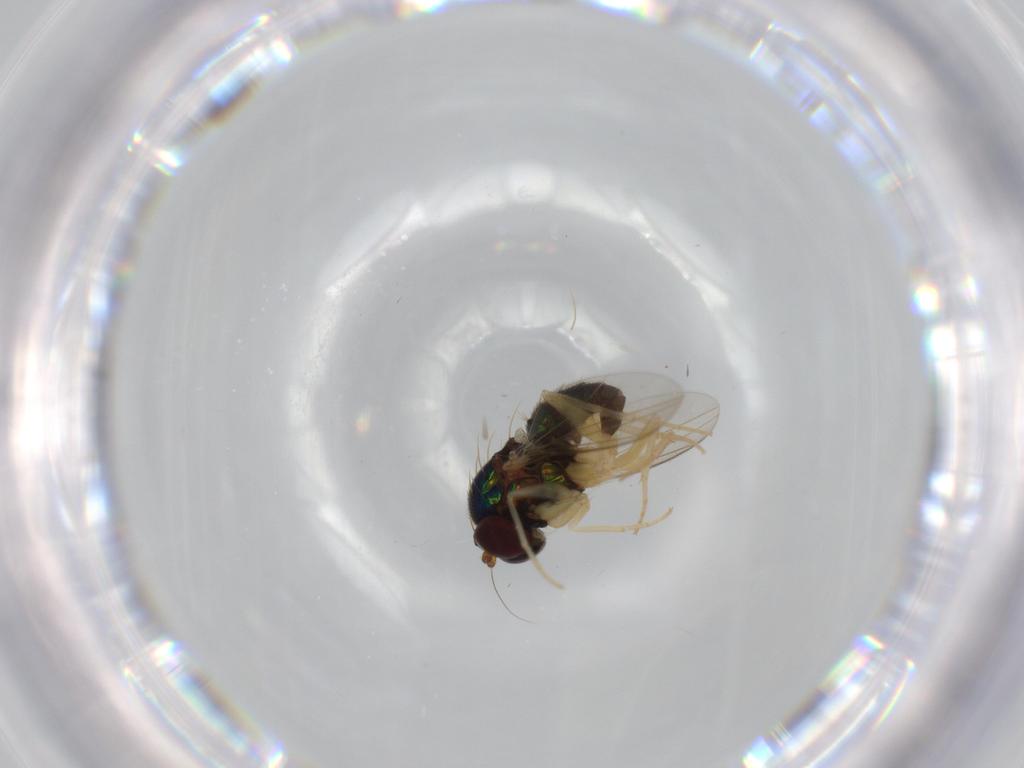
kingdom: Animalia
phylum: Arthropoda
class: Insecta
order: Diptera
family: Dolichopodidae
